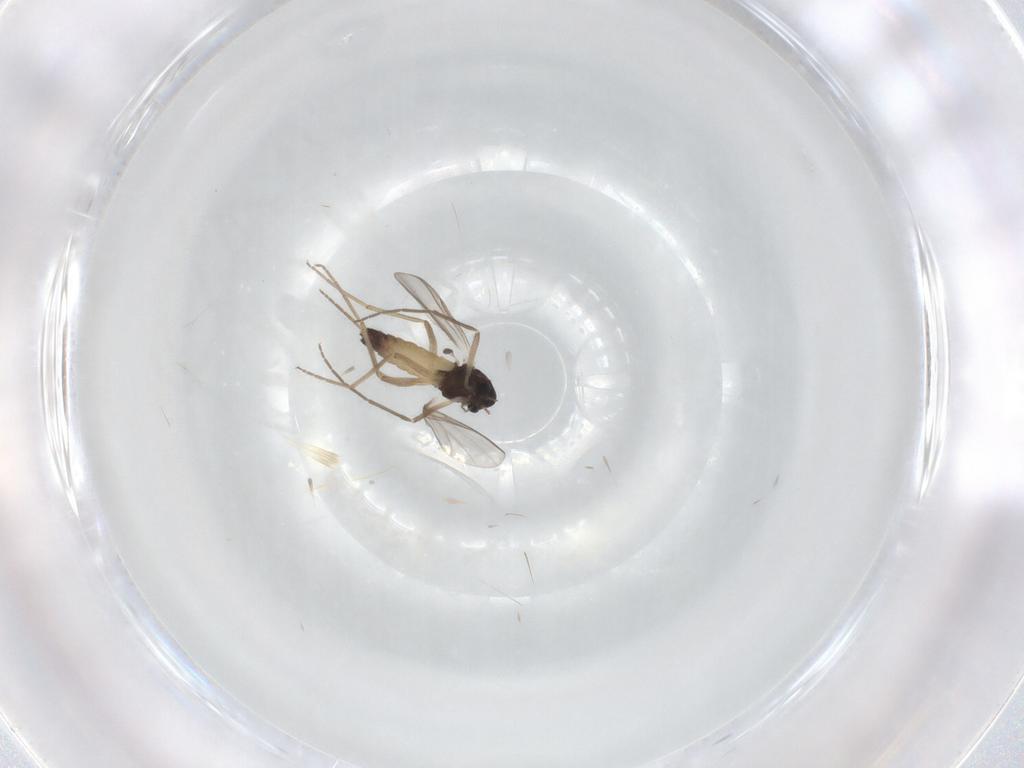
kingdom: Animalia
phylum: Arthropoda
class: Insecta
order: Diptera
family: Chironomidae
